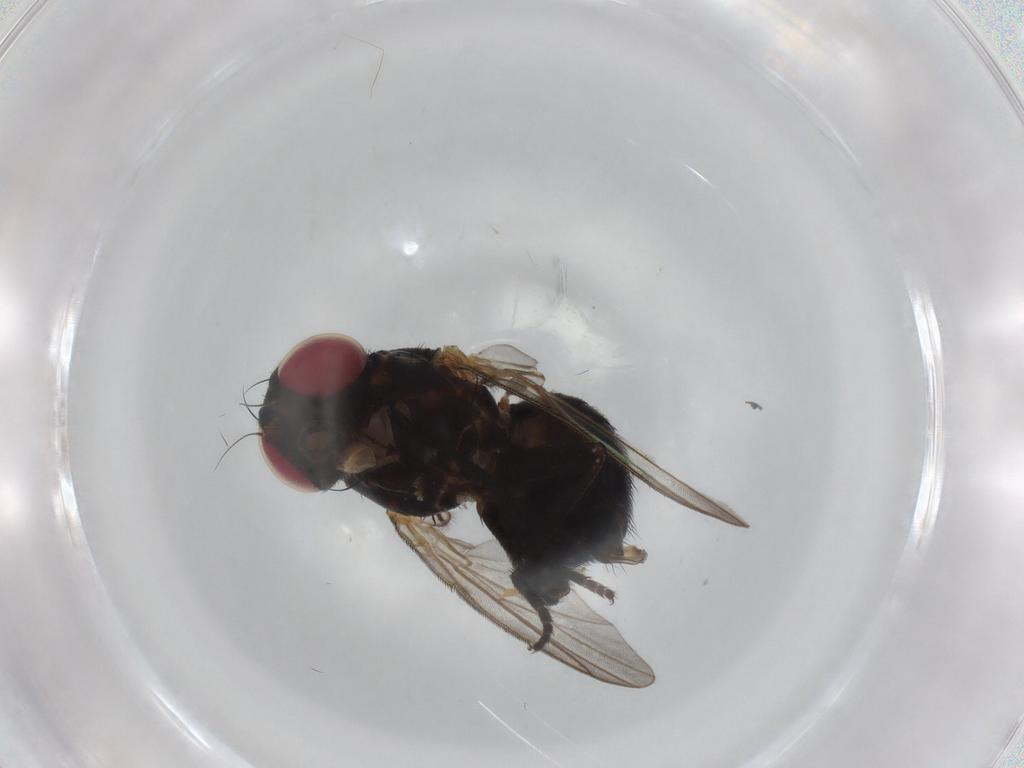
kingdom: Animalia
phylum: Arthropoda
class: Insecta
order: Diptera
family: Agromyzidae
